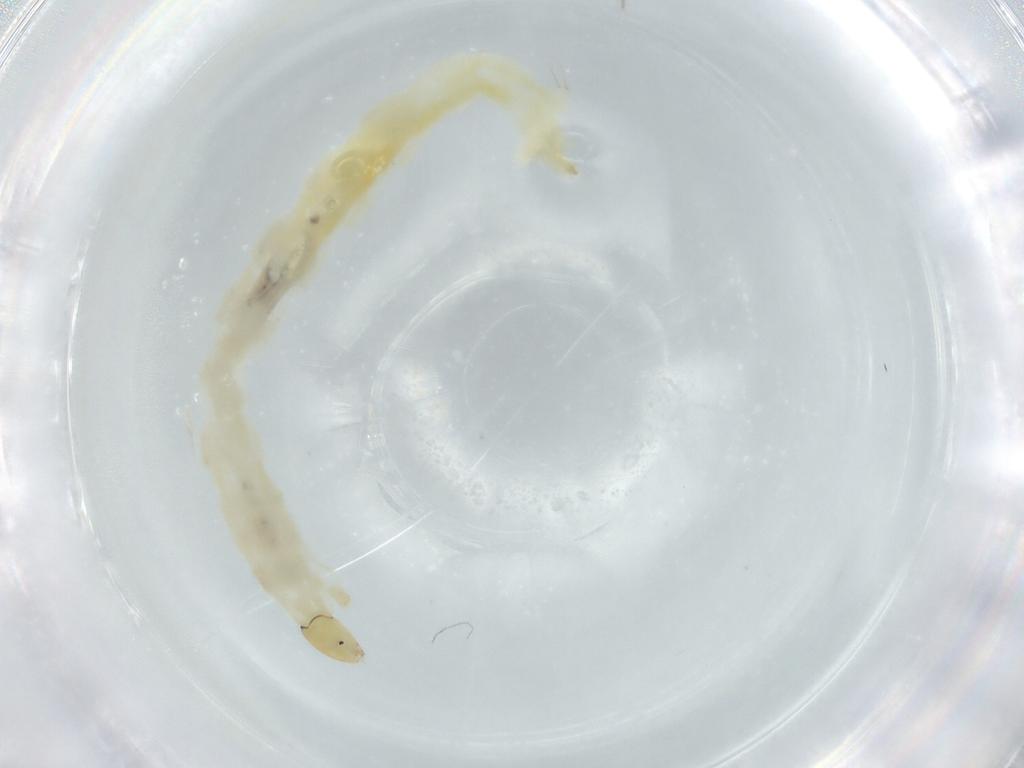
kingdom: Animalia
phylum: Arthropoda
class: Insecta
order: Diptera
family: Chironomidae
